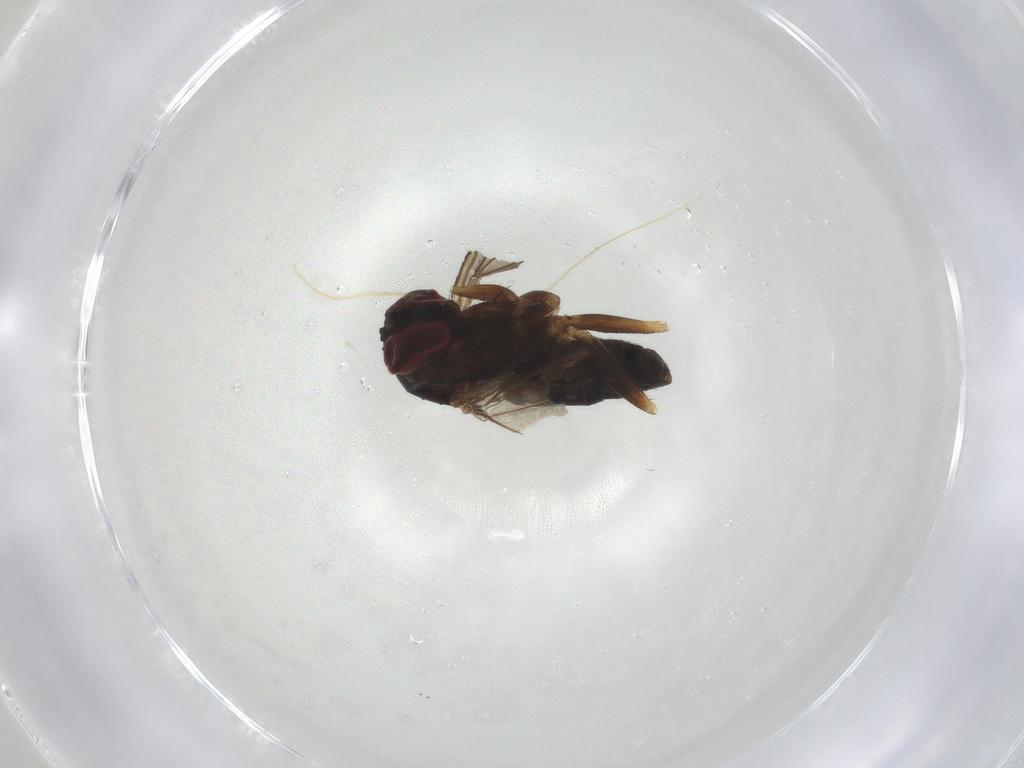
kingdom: Animalia
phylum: Arthropoda
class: Insecta
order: Diptera
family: Dolichopodidae
